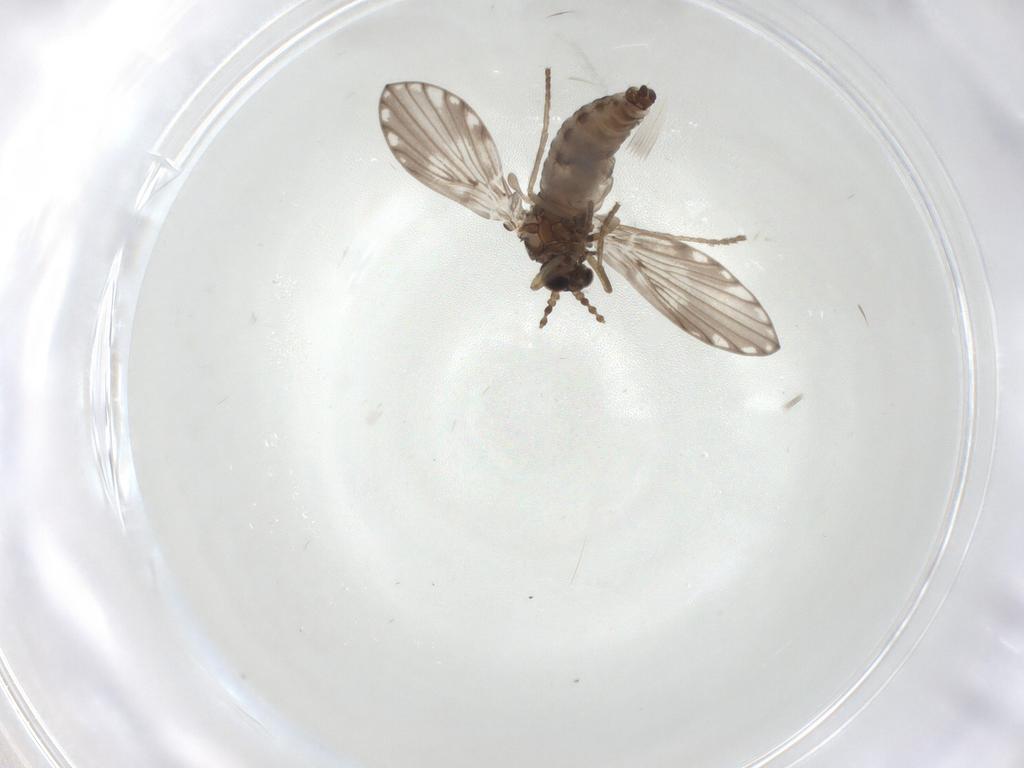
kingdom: Animalia
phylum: Arthropoda
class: Insecta
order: Diptera
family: Psychodidae
